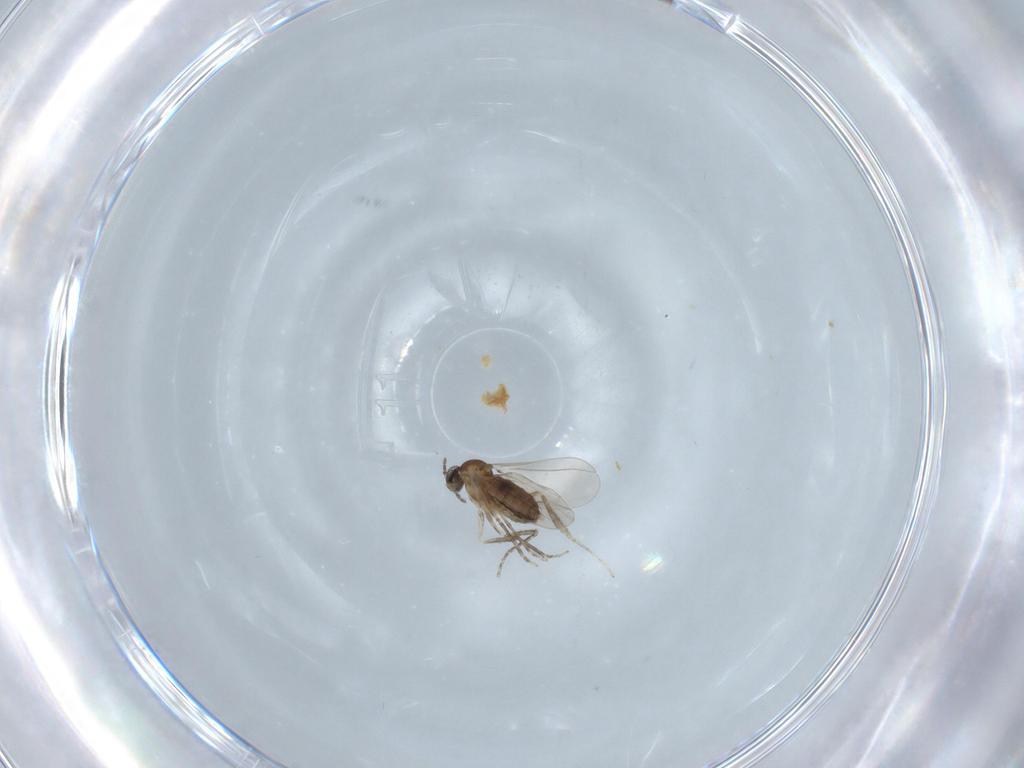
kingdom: Animalia
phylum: Arthropoda
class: Insecta
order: Diptera
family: Cecidomyiidae
